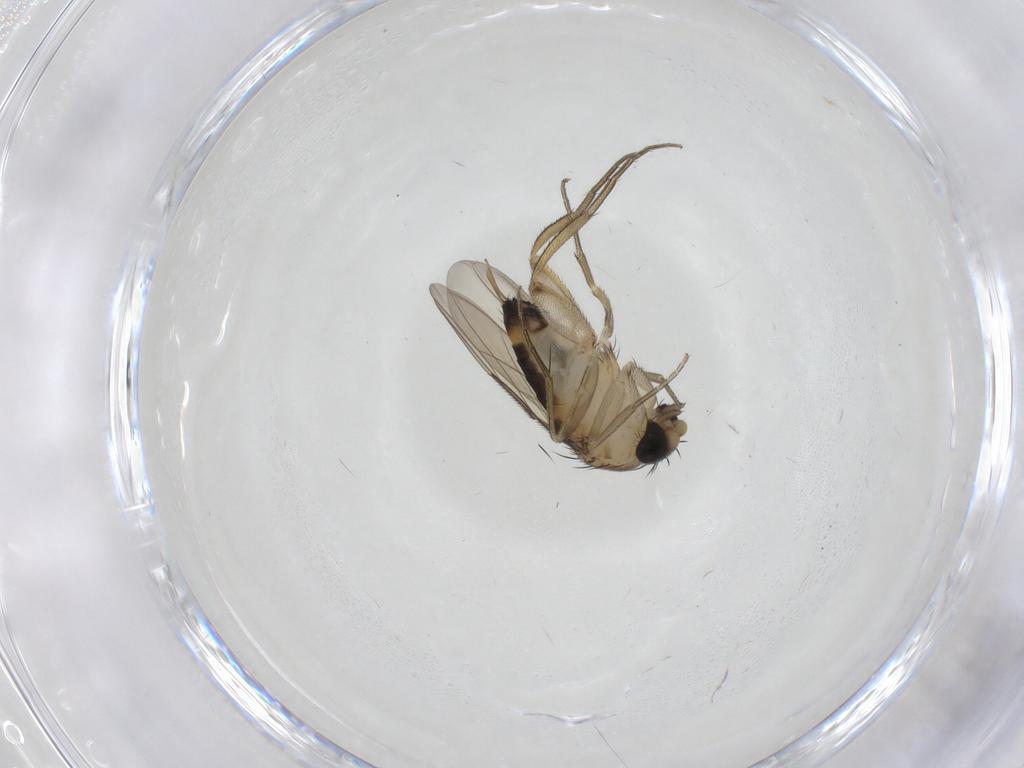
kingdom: Animalia
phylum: Arthropoda
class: Insecta
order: Diptera
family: Phoridae
